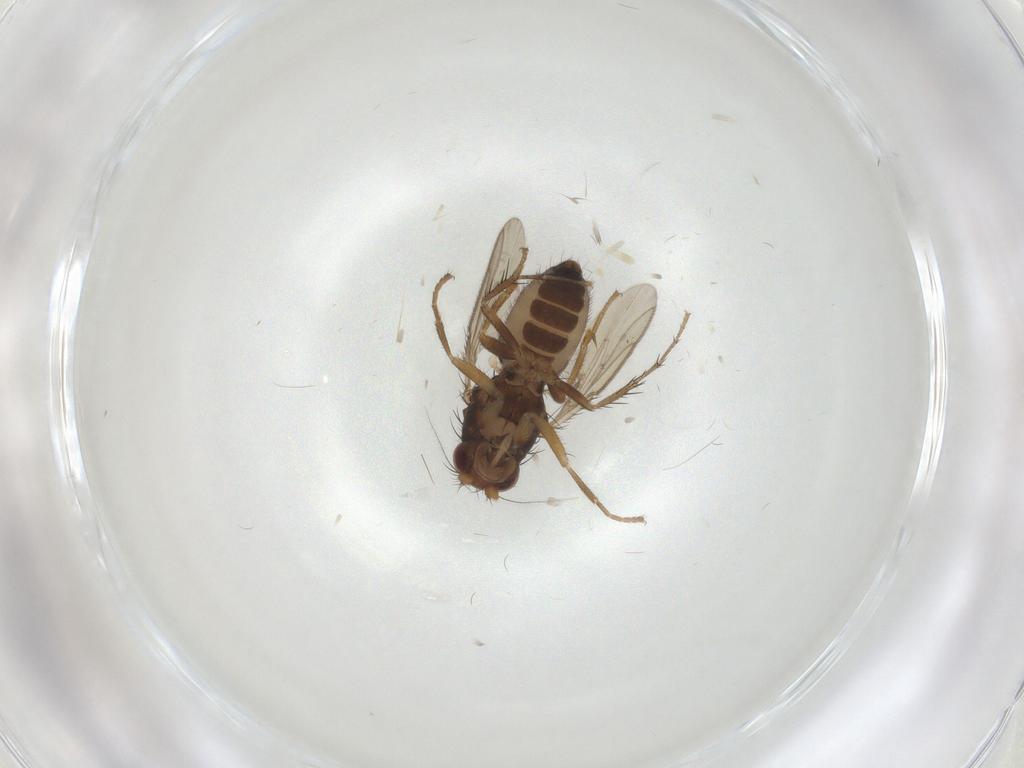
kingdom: Animalia
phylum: Arthropoda
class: Insecta
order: Diptera
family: Sphaeroceridae
